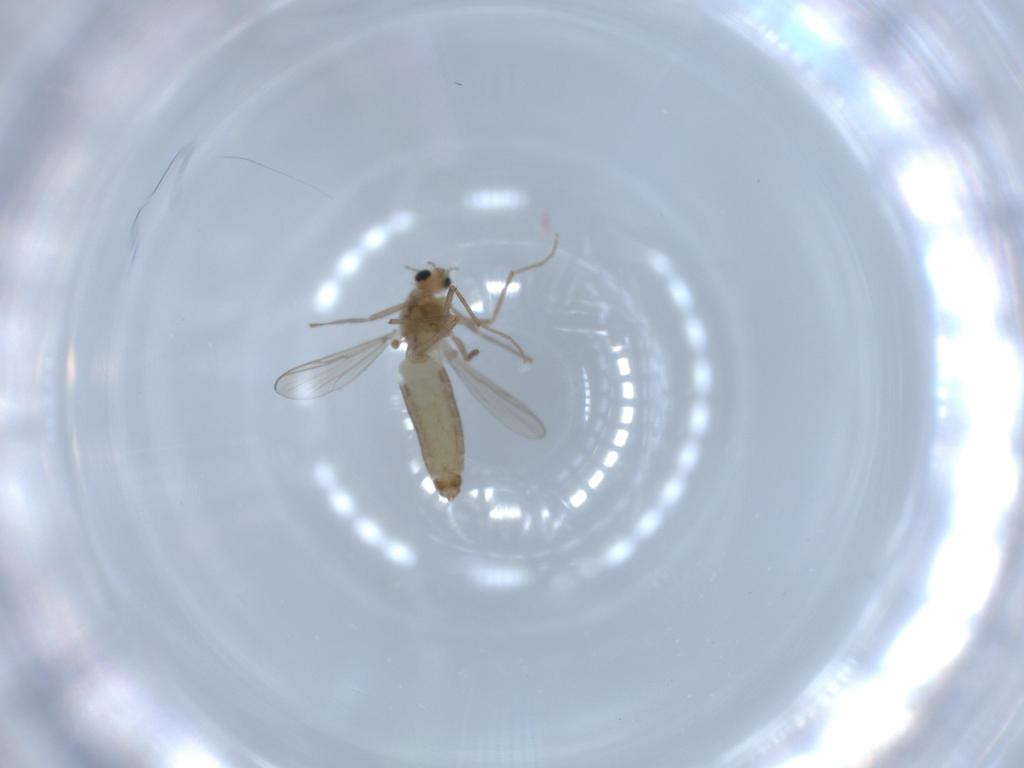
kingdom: Animalia
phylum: Arthropoda
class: Insecta
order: Diptera
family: Chironomidae
